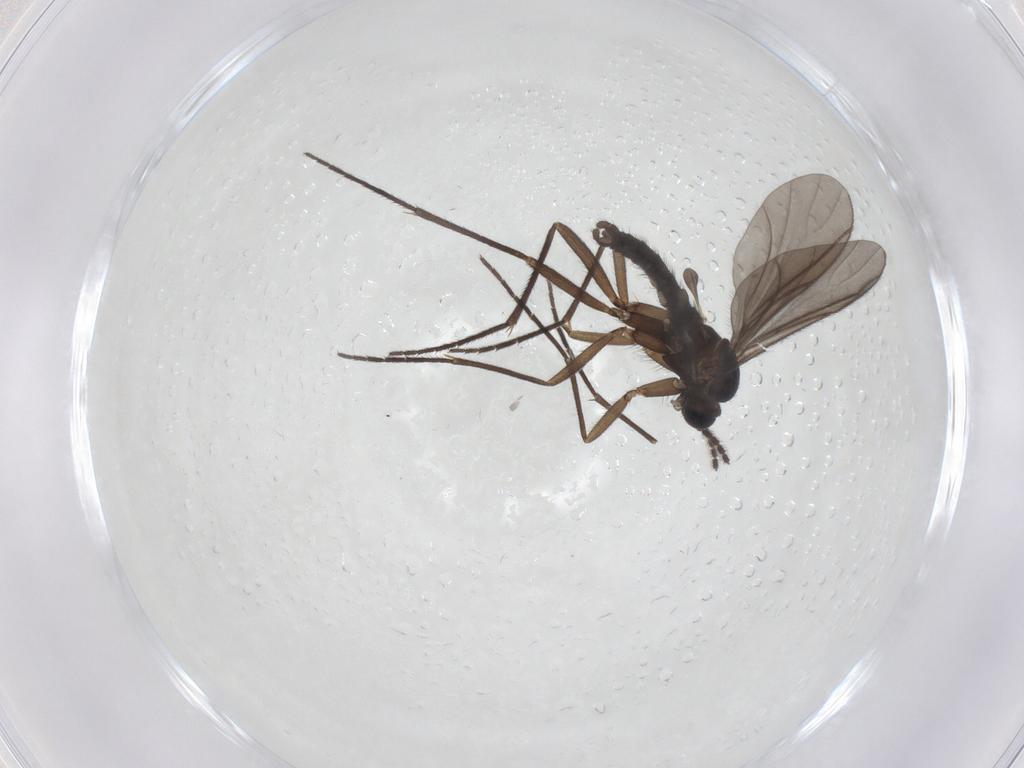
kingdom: Animalia
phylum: Arthropoda
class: Insecta
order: Diptera
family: Sciaridae
